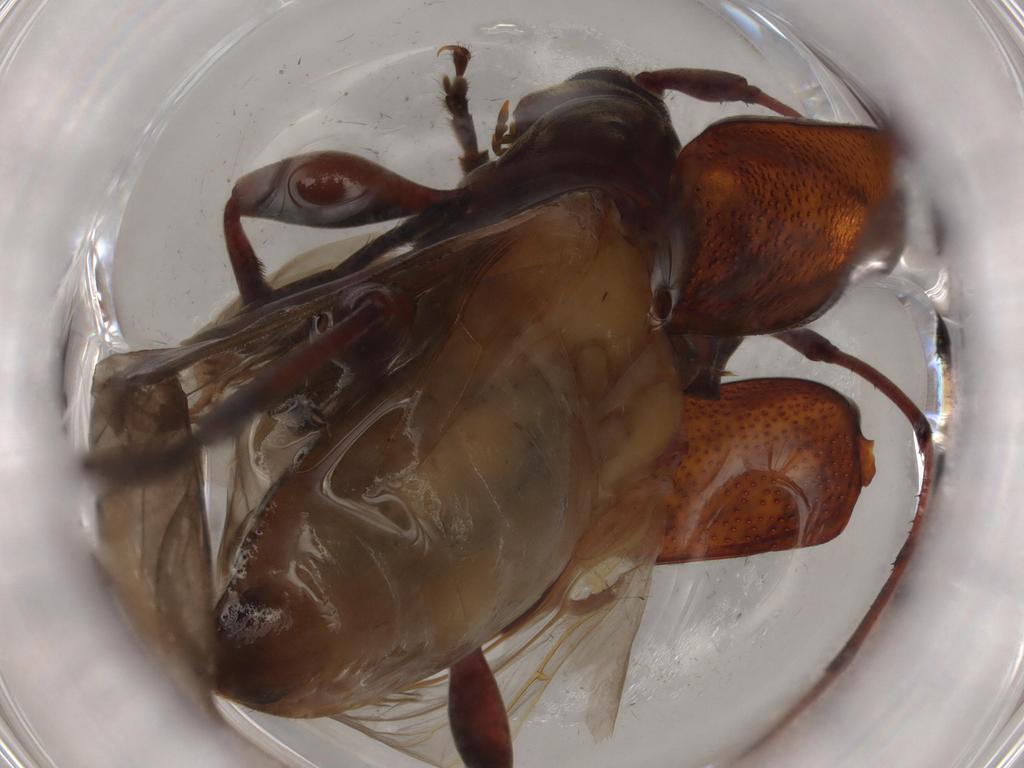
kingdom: Animalia
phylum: Arthropoda
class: Insecta
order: Coleoptera
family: Cerambycidae
